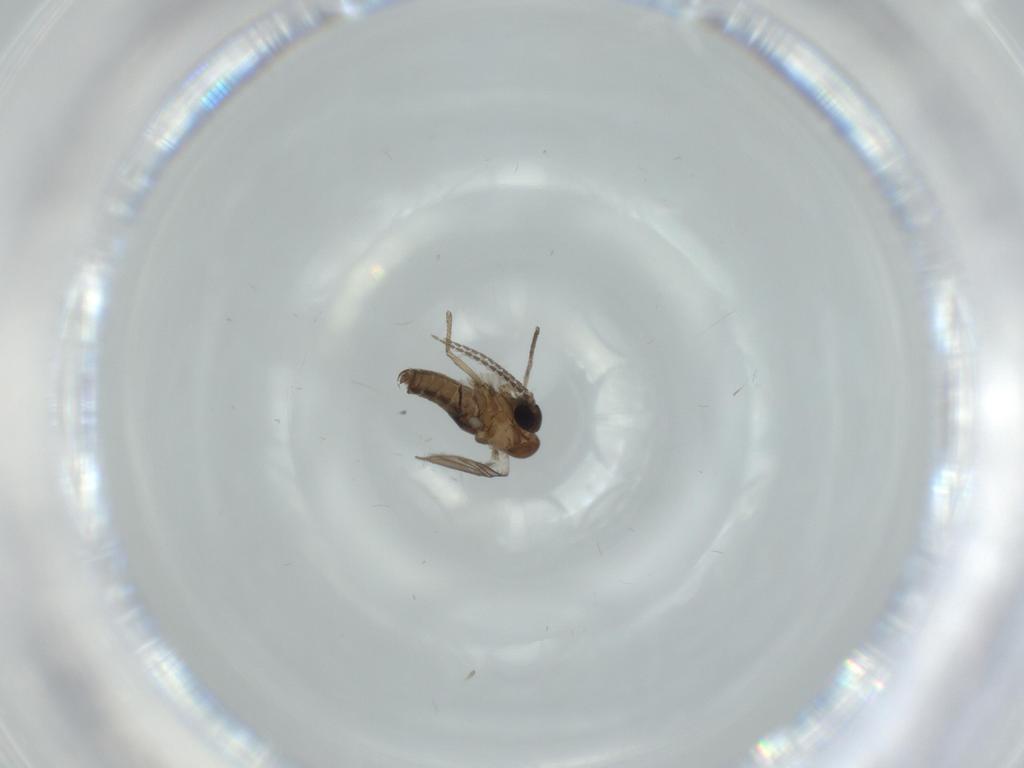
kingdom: Animalia
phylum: Arthropoda
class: Insecta
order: Diptera
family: Psychodidae
